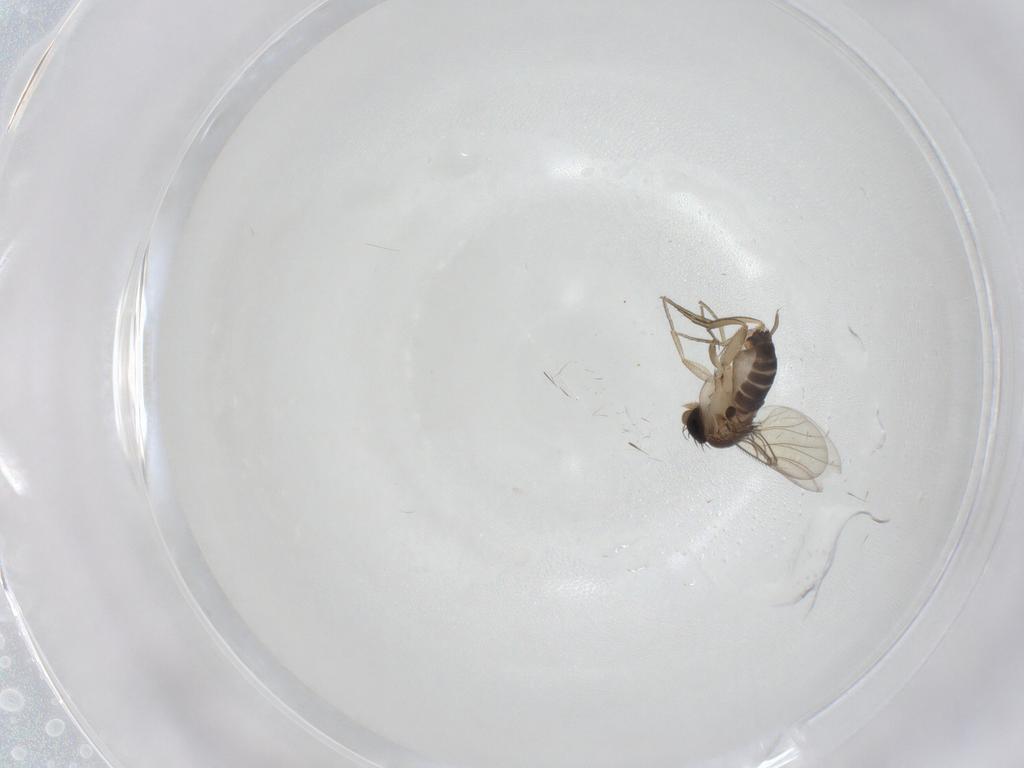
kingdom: Animalia
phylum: Arthropoda
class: Insecta
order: Diptera
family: Phoridae
